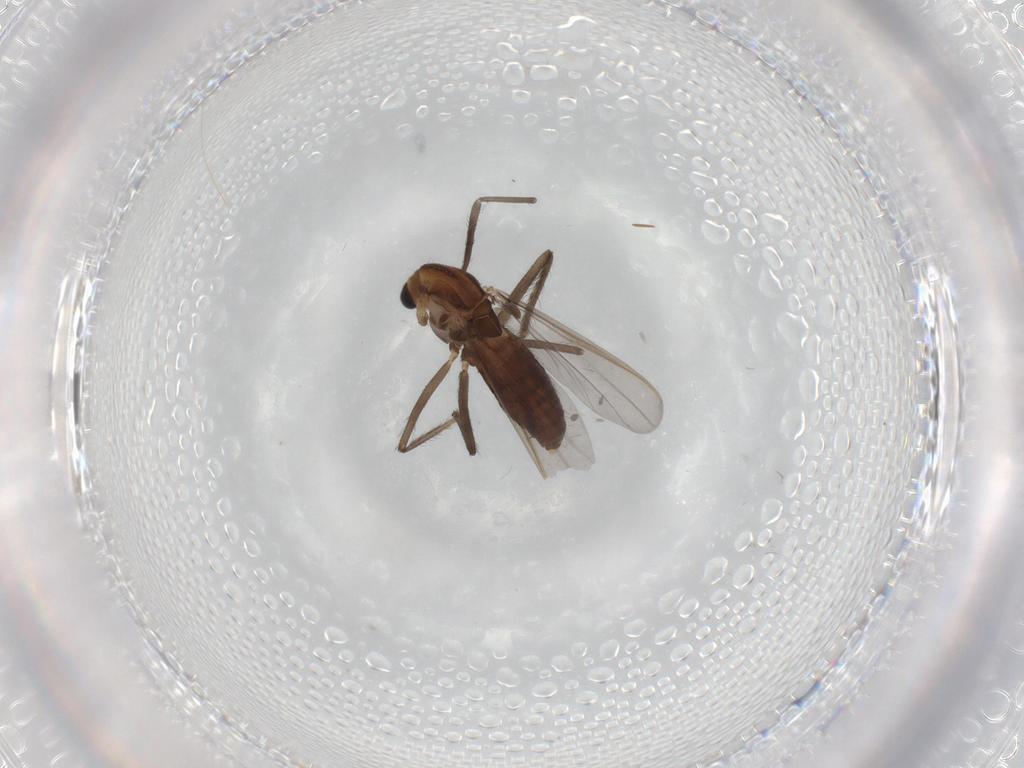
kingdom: Animalia
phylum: Arthropoda
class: Insecta
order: Diptera
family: Chironomidae
